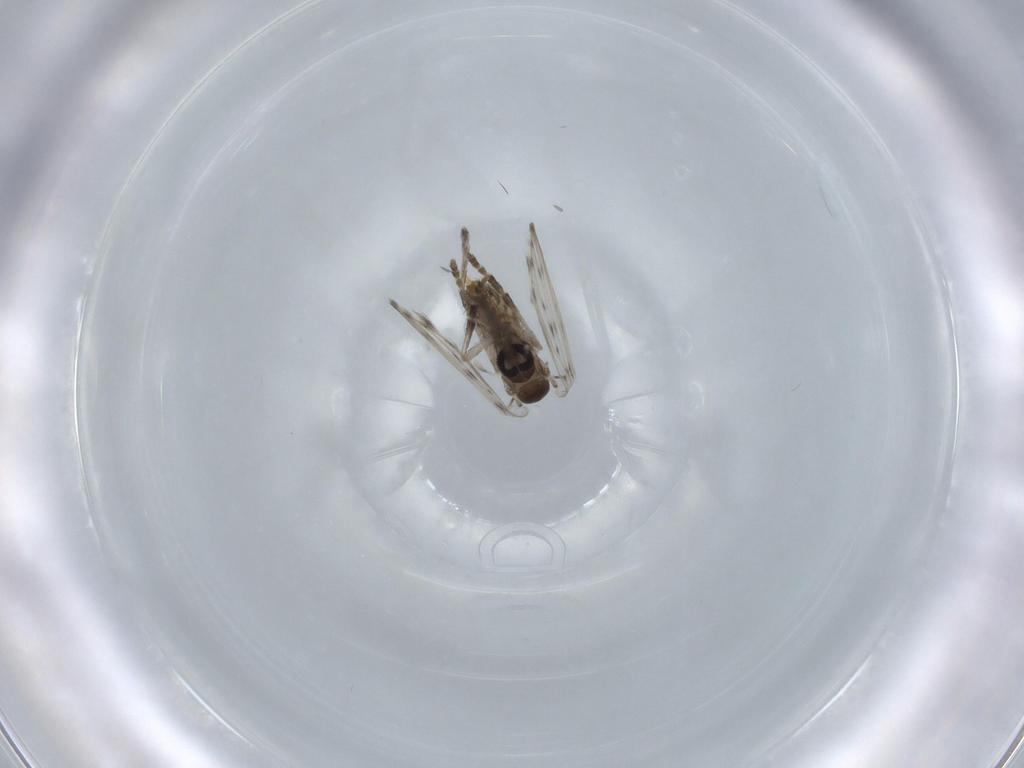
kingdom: Animalia
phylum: Arthropoda
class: Insecta
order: Diptera
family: Psychodidae
